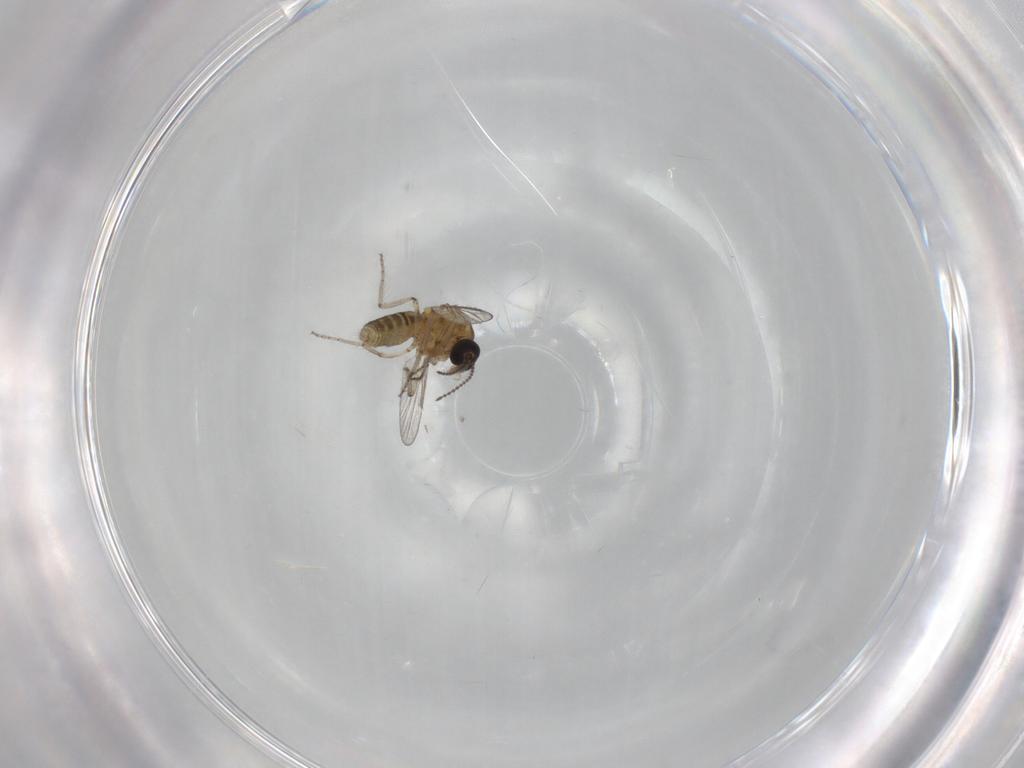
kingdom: Animalia
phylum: Arthropoda
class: Insecta
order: Diptera
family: Ceratopogonidae
